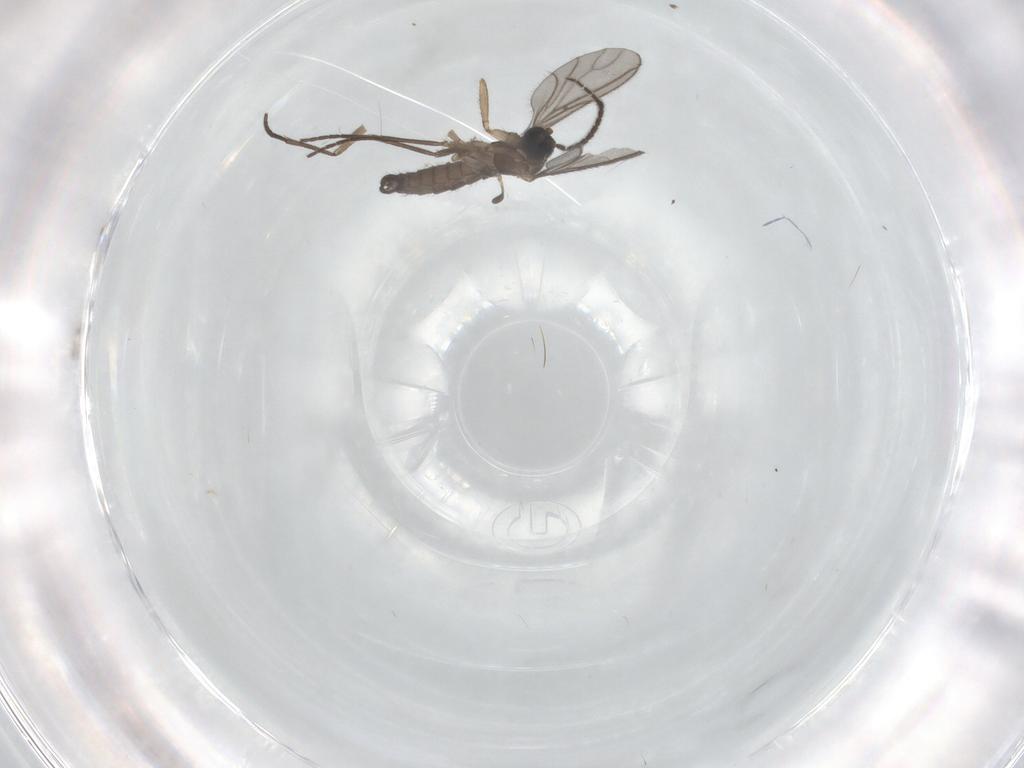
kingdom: Animalia
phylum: Arthropoda
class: Insecta
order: Diptera
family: Sciaridae
